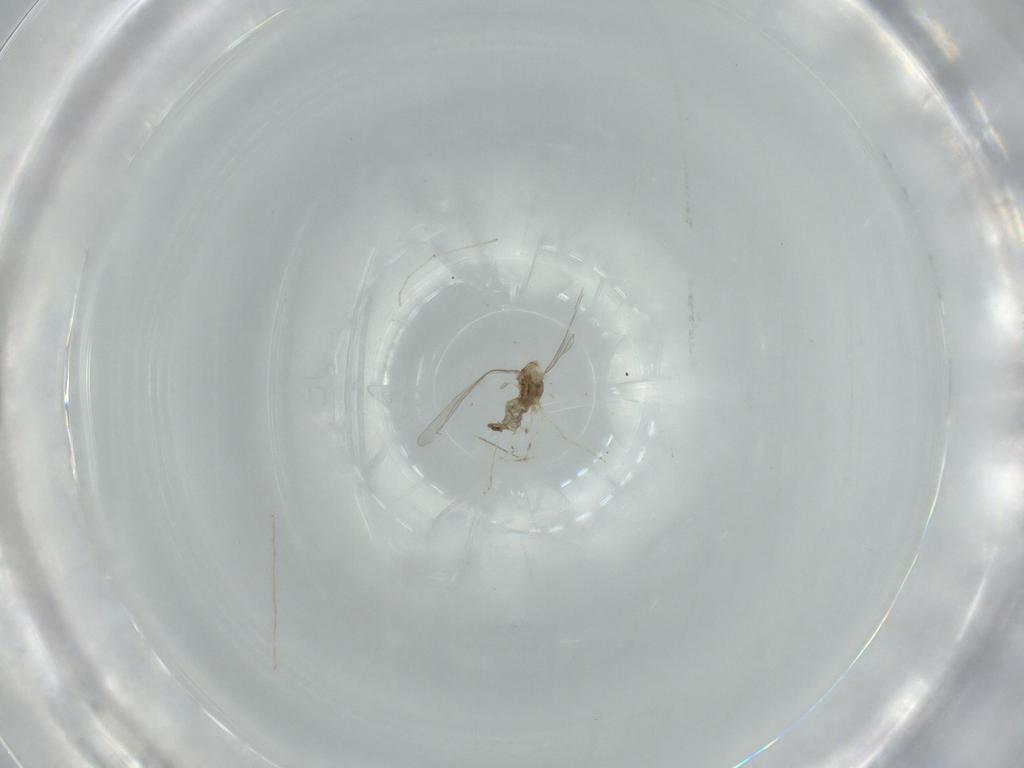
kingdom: Animalia
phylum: Arthropoda
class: Insecta
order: Diptera
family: Cecidomyiidae
